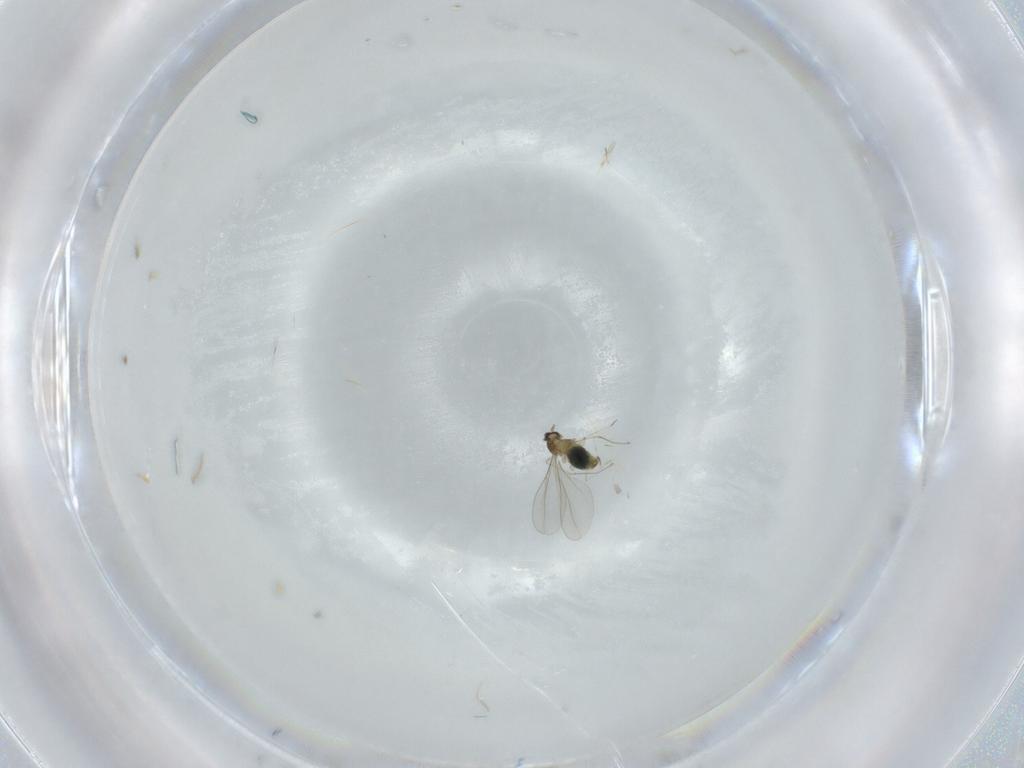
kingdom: Animalia
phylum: Arthropoda
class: Insecta
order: Diptera
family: Cecidomyiidae
